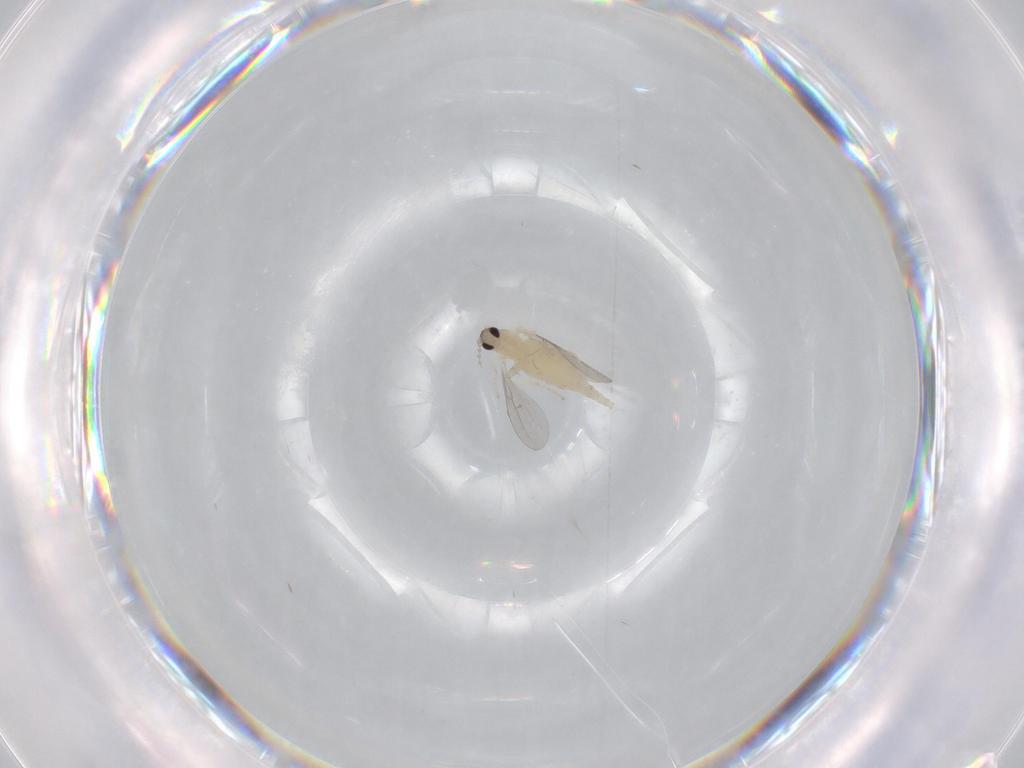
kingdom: Animalia
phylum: Arthropoda
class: Insecta
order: Diptera
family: Cecidomyiidae
